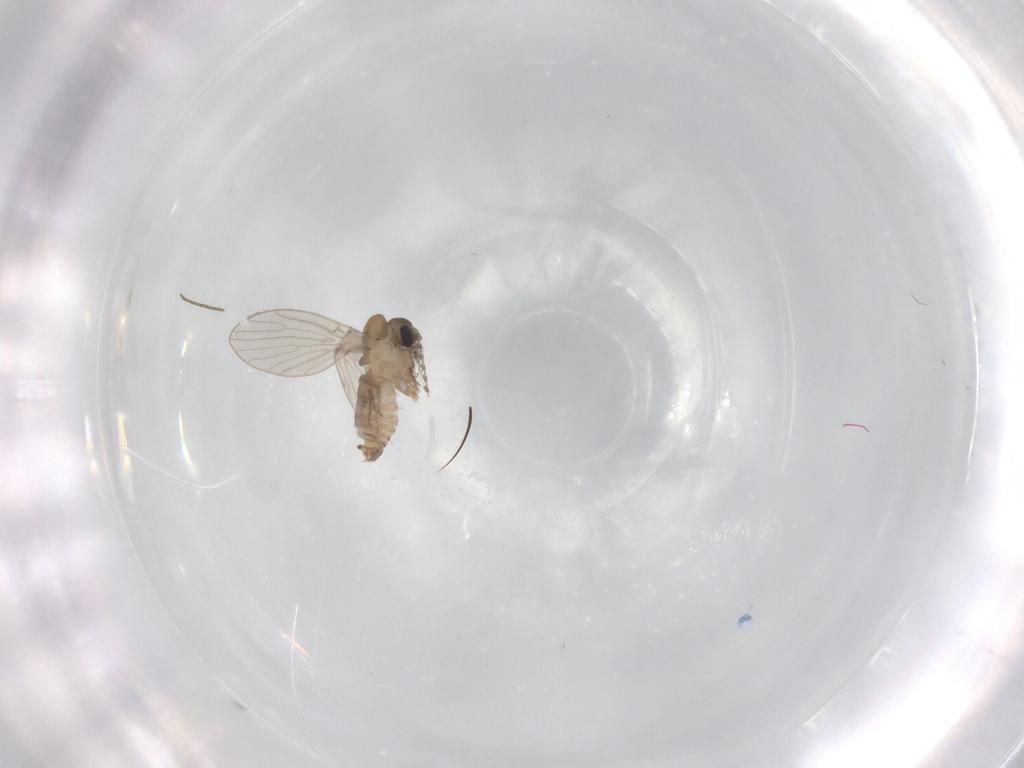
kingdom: Animalia
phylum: Arthropoda
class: Insecta
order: Diptera
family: Chironomidae
